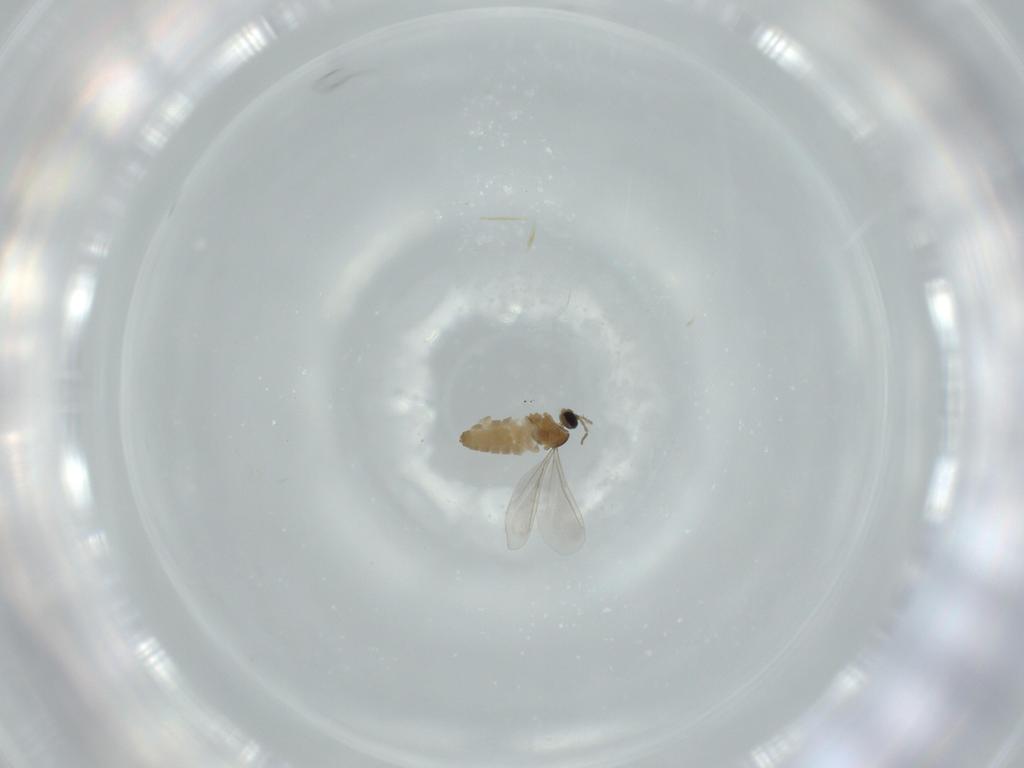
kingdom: Animalia
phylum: Arthropoda
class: Insecta
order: Diptera
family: Cecidomyiidae
